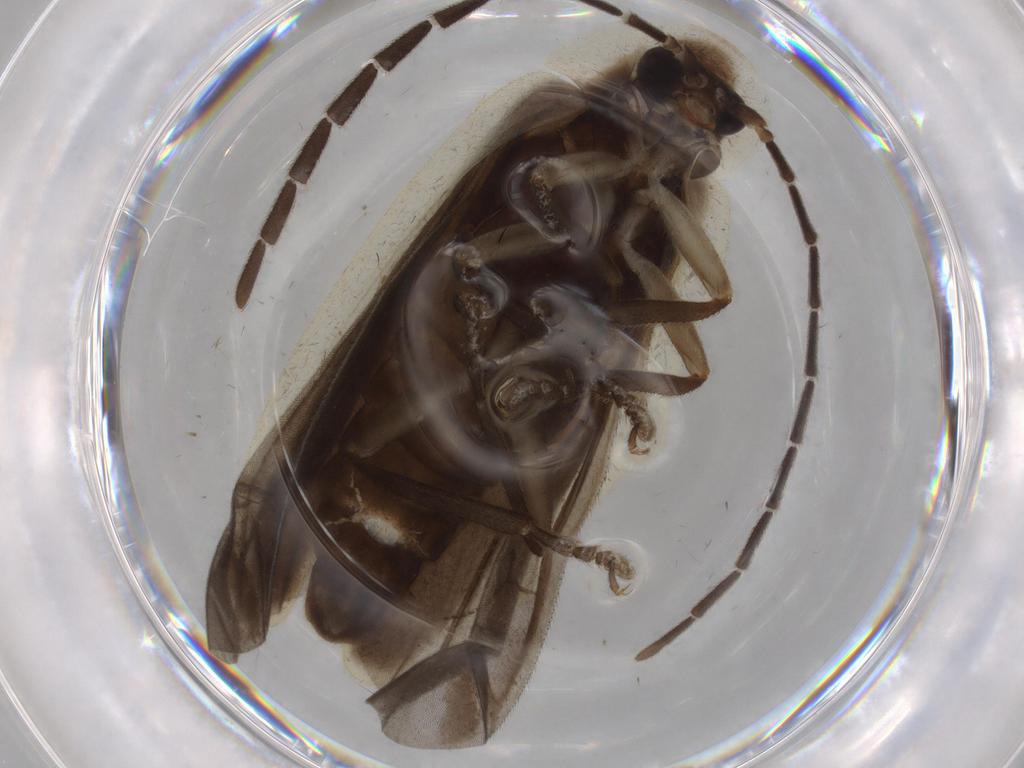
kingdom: Animalia
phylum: Arthropoda
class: Insecta
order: Coleoptera
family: Lampyridae
